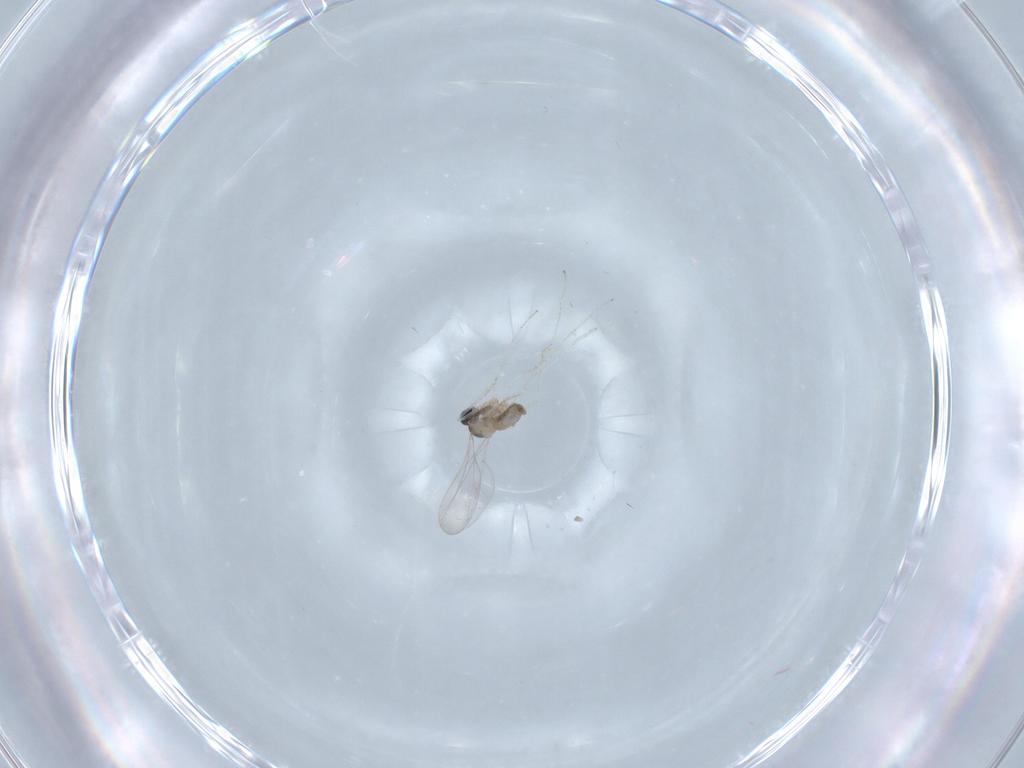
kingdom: Animalia
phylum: Arthropoda
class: Insecta
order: Diptera
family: Cecidomyiidae
